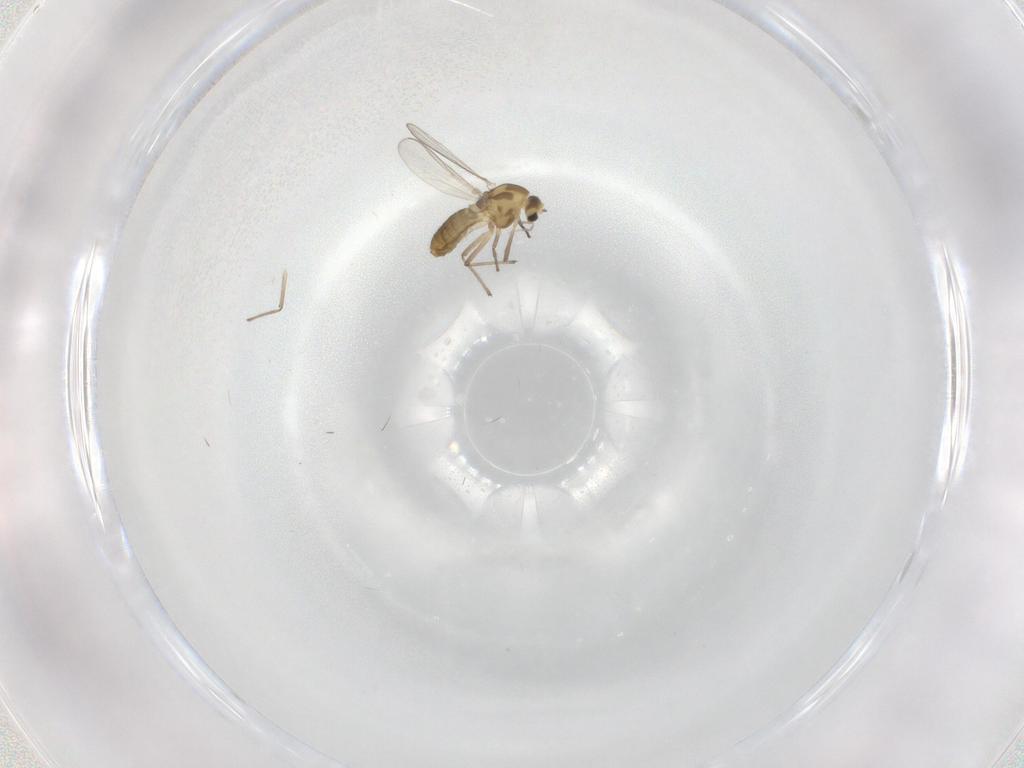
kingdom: Animalia
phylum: Arthropoda
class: Insecta
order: Diptera
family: Chironomidae
